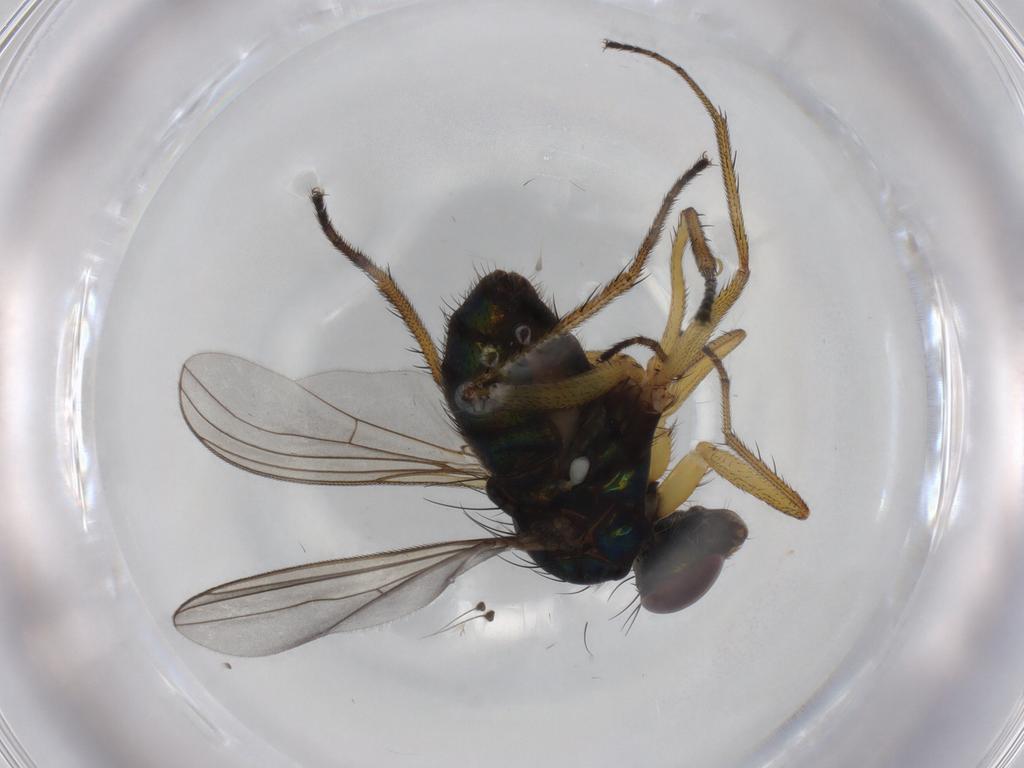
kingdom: Animalia
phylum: Arthropoda
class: Insecta
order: Diptera
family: Dolichopodidae
